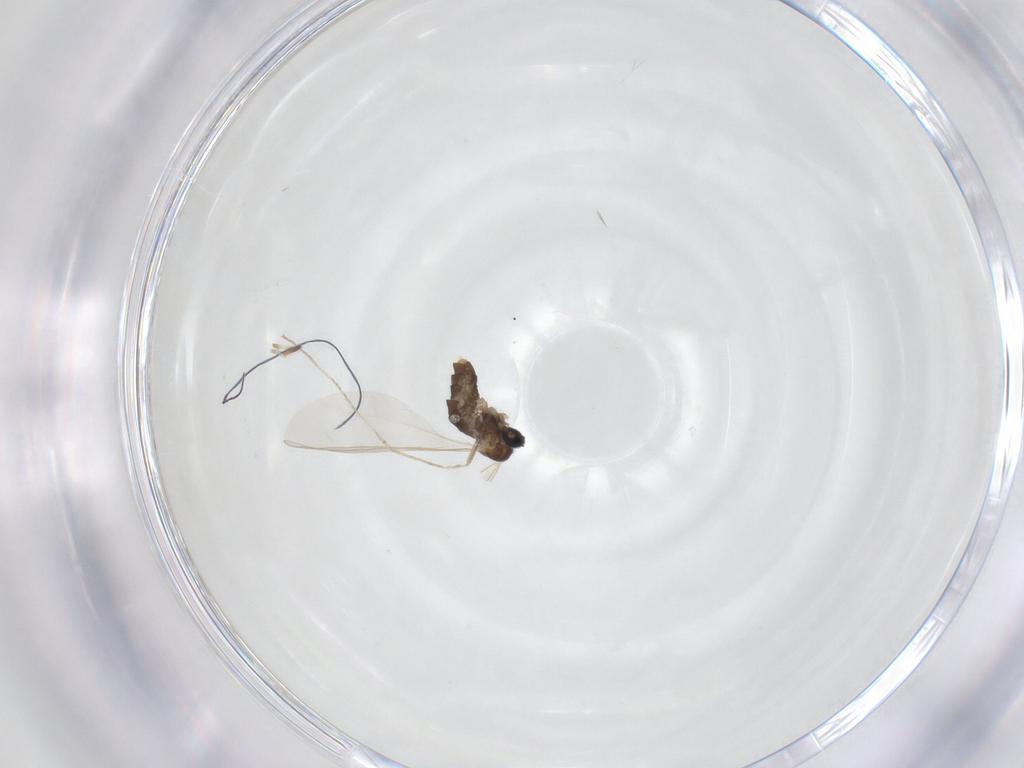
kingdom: Animalia
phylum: Arthropoda
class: Insecta
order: Diptera
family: Cecidomyiidae
